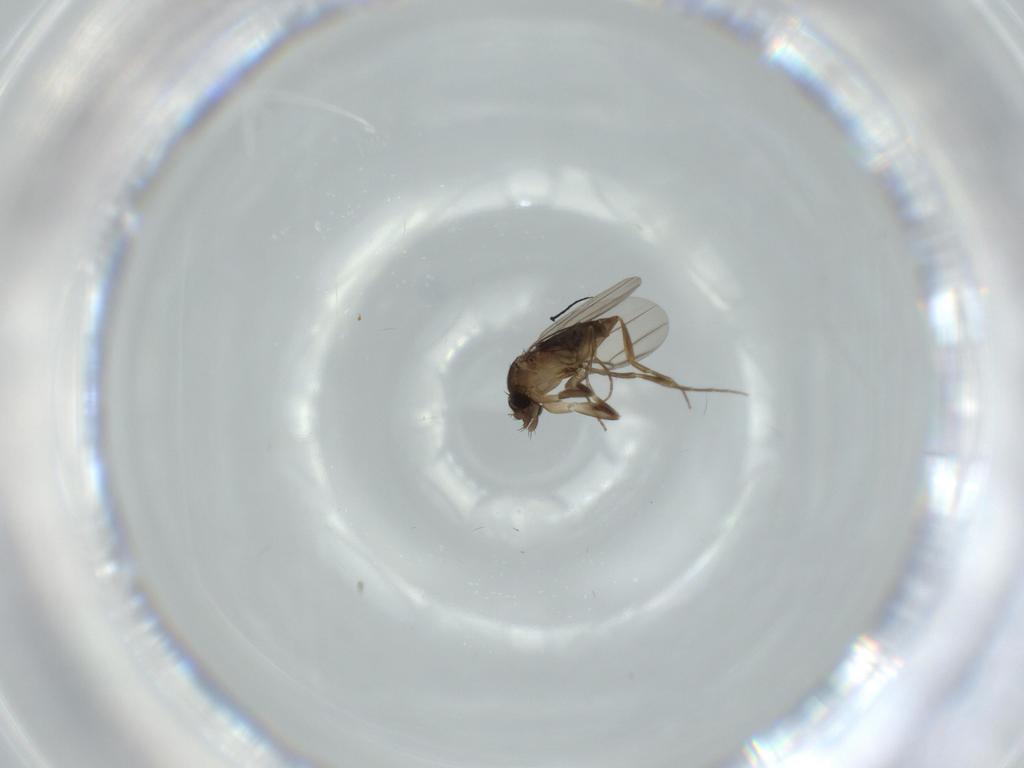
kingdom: Animalia
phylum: Arthropoda
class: Insecta
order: Diptera
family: Phoridae
